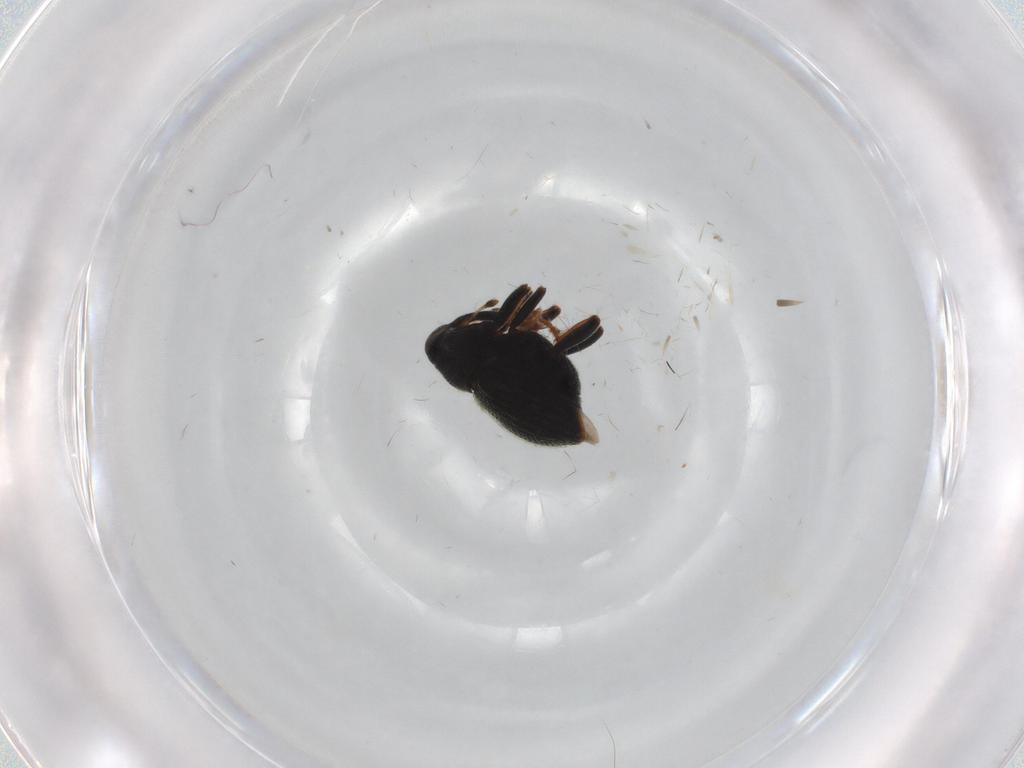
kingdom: Animalia
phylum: Arthropoda
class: Insecta
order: Coleoptera
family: Curculionidae
